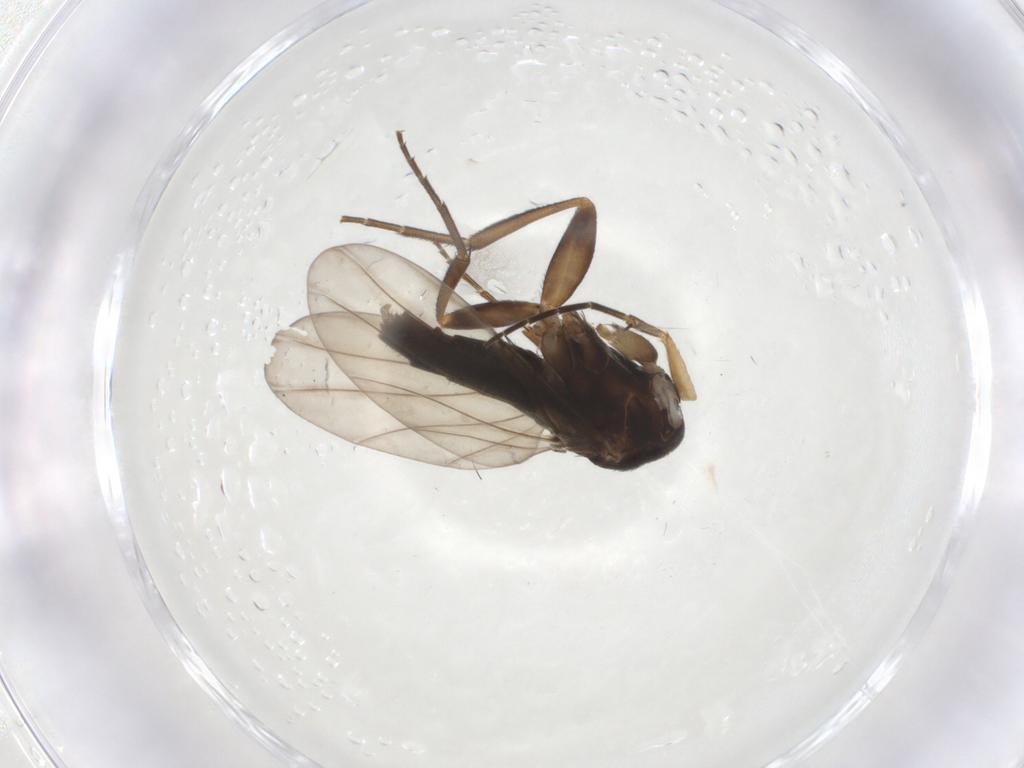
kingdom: Animalia
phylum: Arthropoda
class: Insecta
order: Diptera
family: Phoridae
